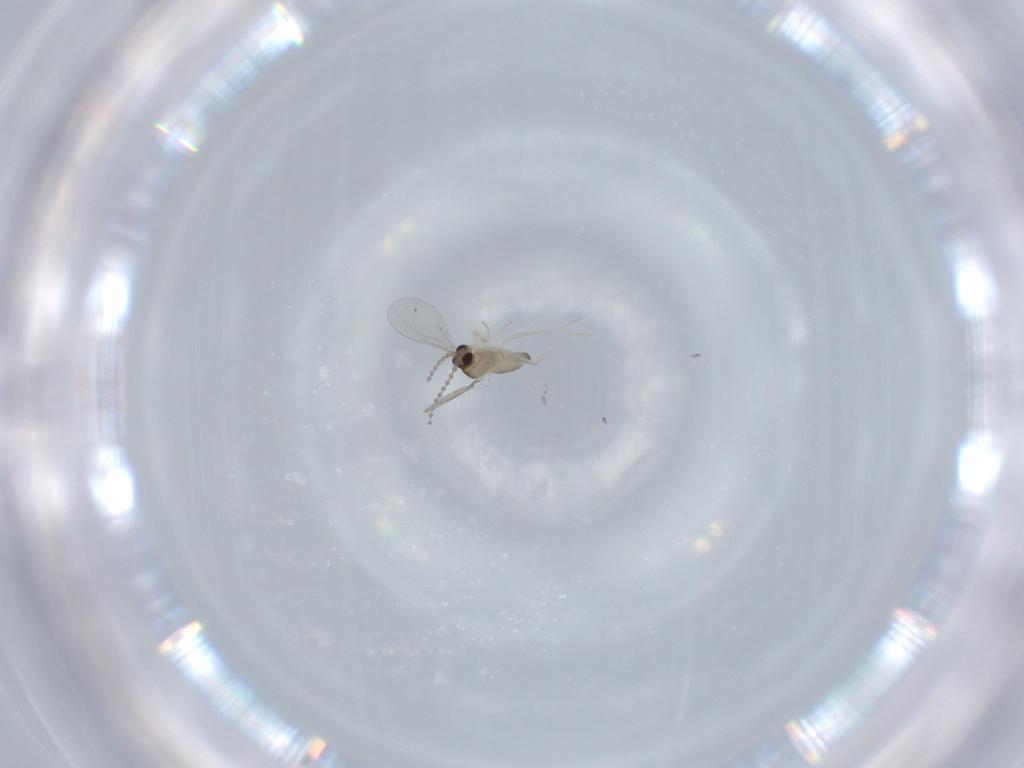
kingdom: Animalia
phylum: Arthropoda
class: Insecta
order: Diptera
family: Cecidomyiidae
